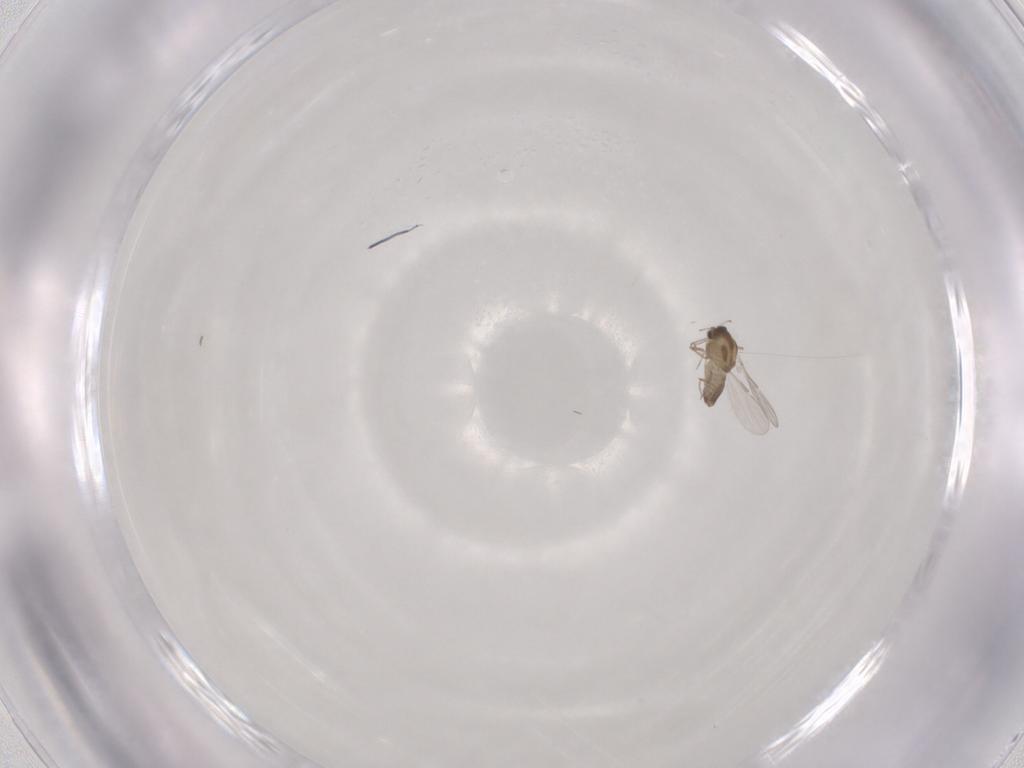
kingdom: Animalia
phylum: Arthropoda
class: Insecta
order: Diptera
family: Chironomidae
